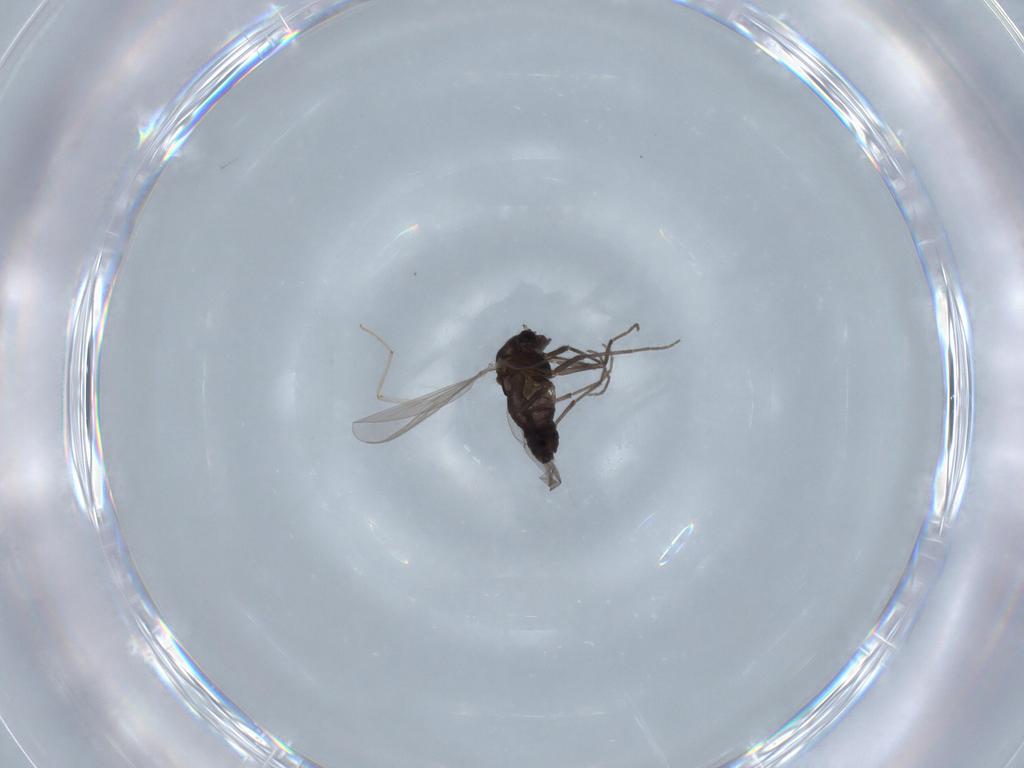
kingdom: Animalia
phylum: Arthropoda
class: Insecta
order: Diptera
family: Chironomidae
